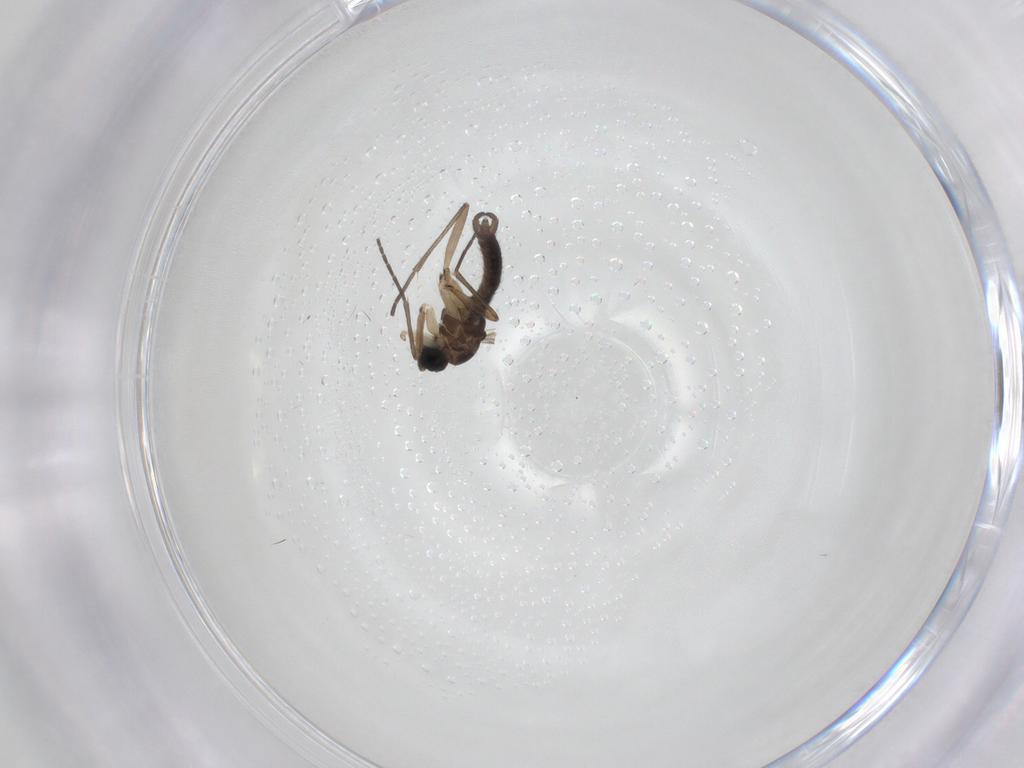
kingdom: Animalia
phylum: Arthropoda
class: Insecta
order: Diptera
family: Sciaridae
